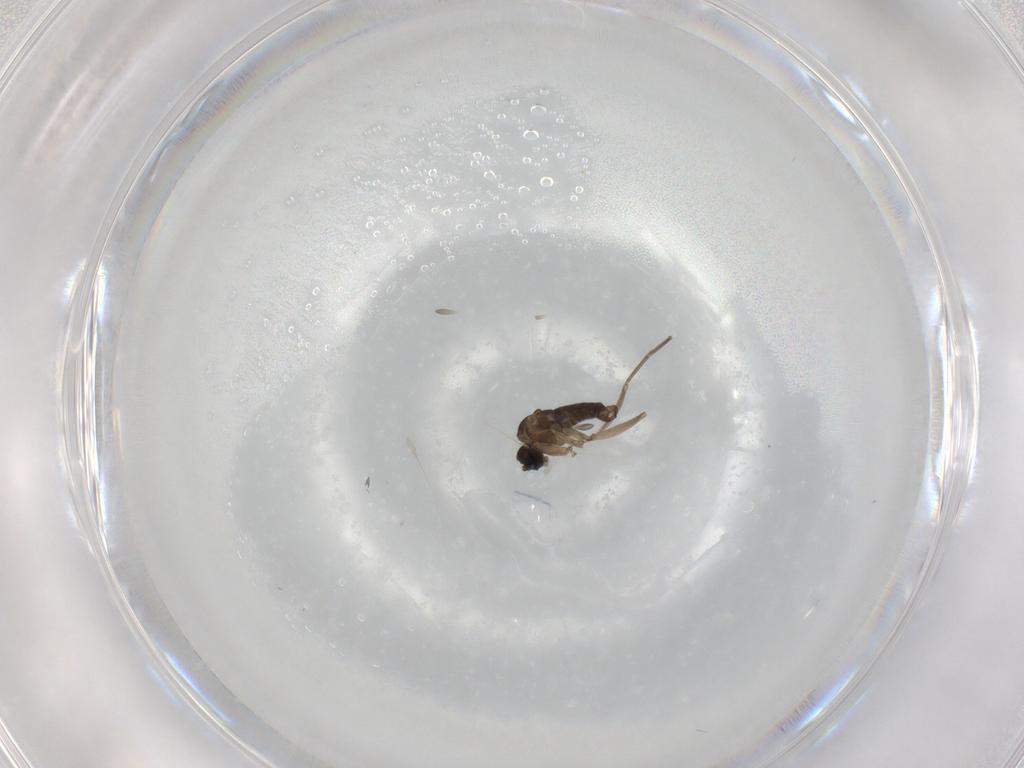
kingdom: Animalia
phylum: Arthropoda
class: Insecta
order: Diptera
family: Sciaridae
